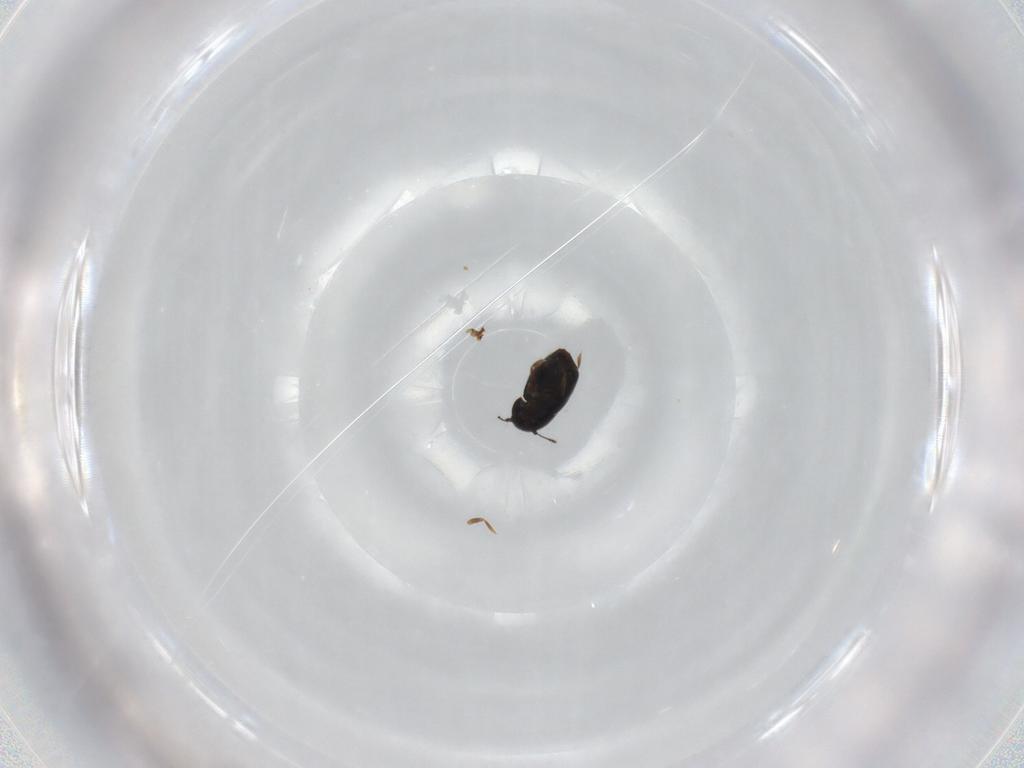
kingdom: Animalia
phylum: Arthropoda
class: Insecta
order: Coleoptera
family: Ptiliidae
